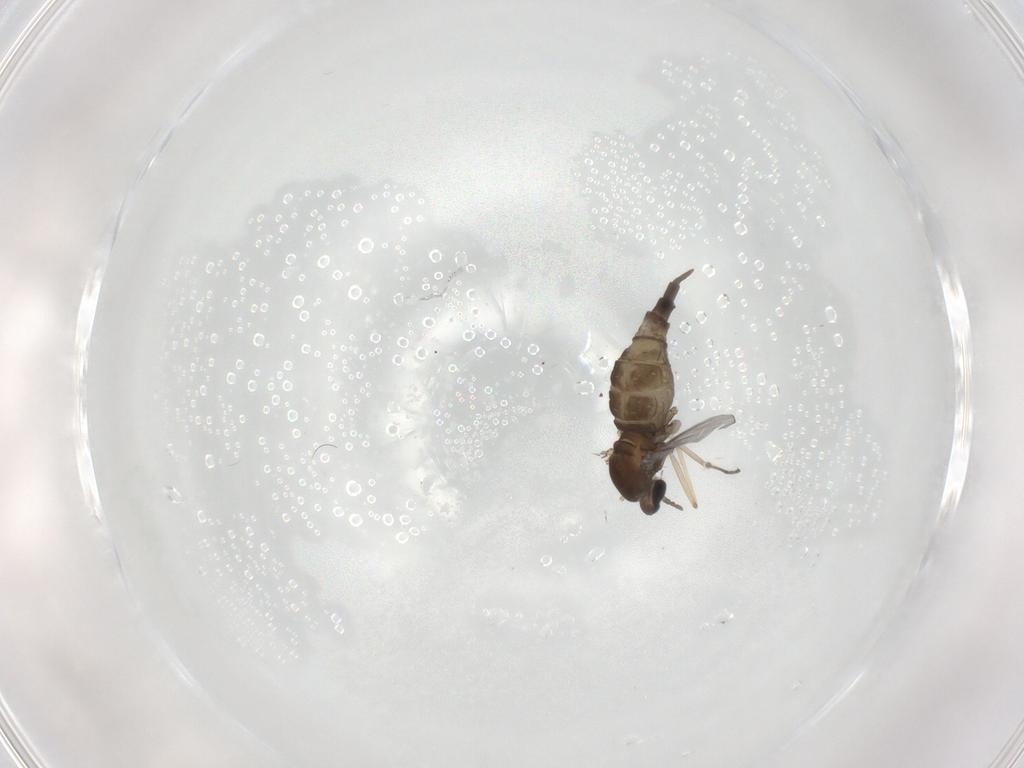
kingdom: Animalia
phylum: Arthropoda
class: Insecta
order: Diptera
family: Cecidomyiidae
